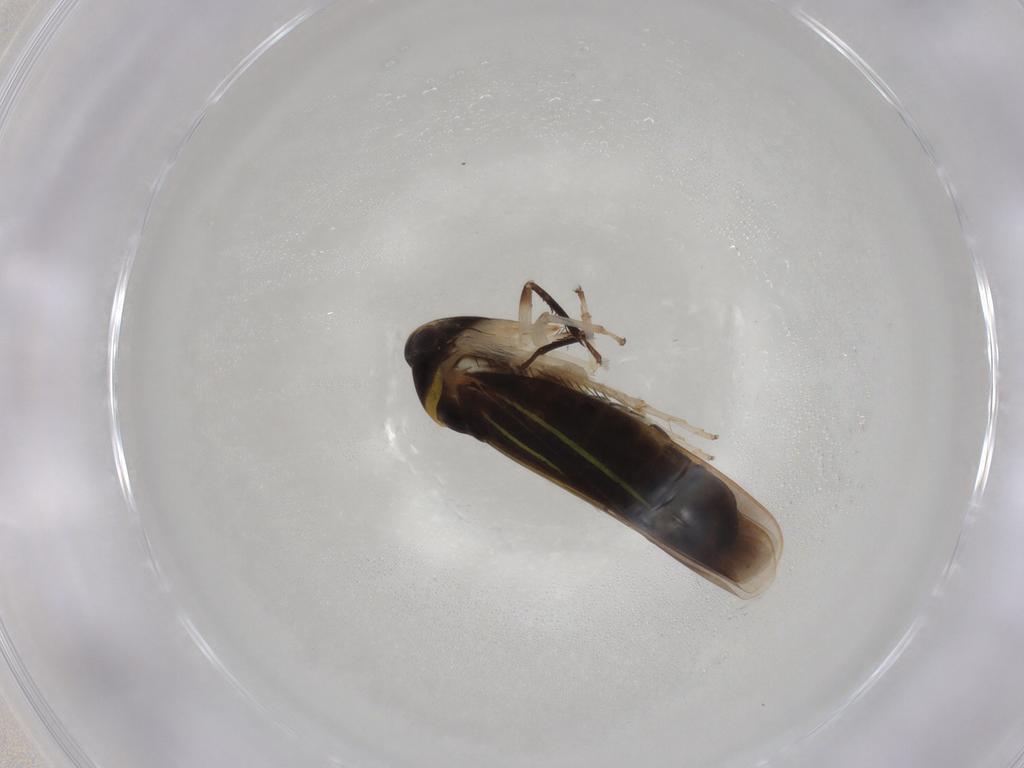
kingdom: Animalia
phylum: Arthropoda
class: Insecta
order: Hemiptera
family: Cicadellidae
